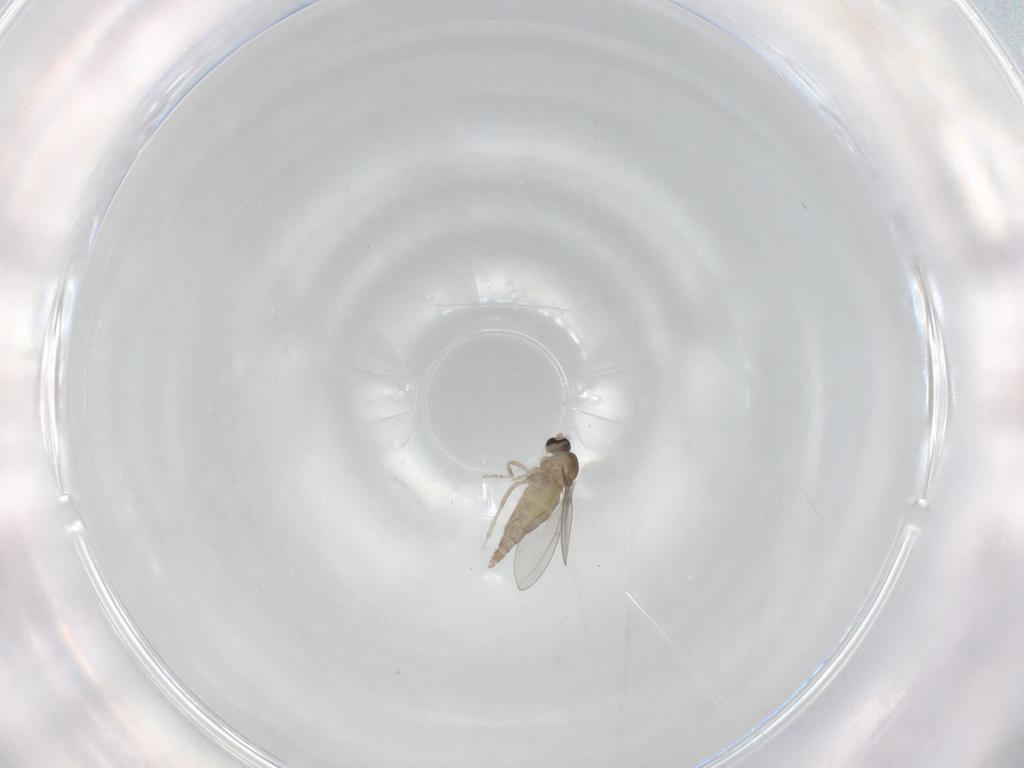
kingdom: Animalia
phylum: Arthropoda
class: Insecta
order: Diptera
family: Cecidomyiidae
